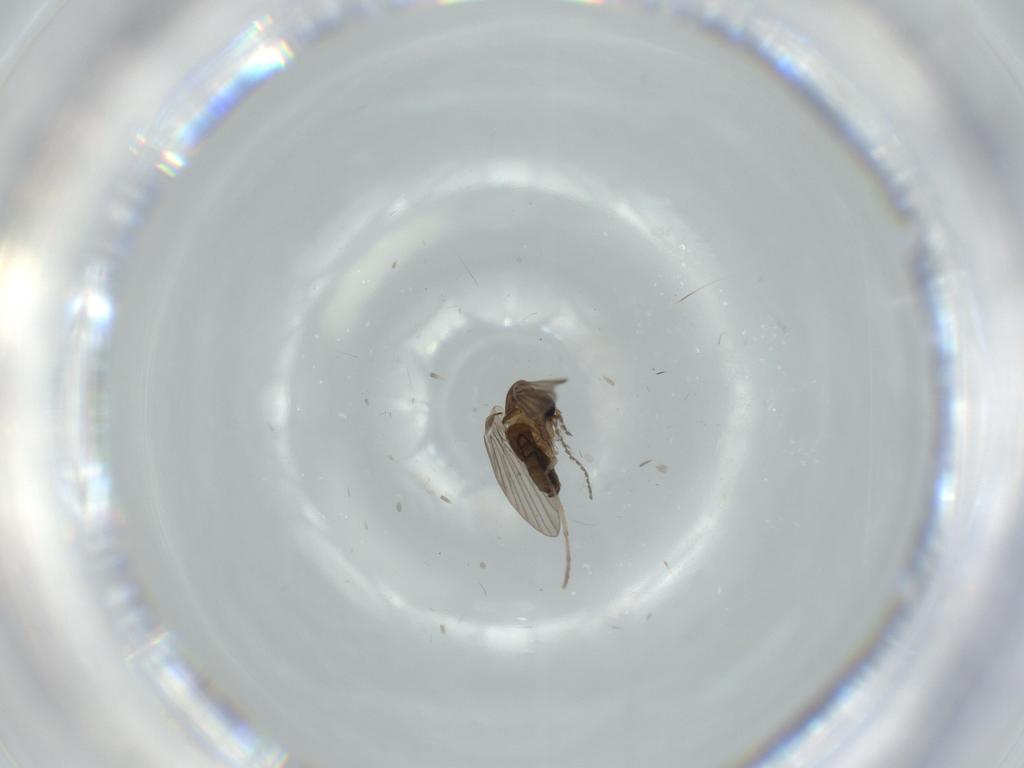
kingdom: Animalia
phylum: Arthropoda
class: Insecta
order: Diptera
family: Psychodidae
